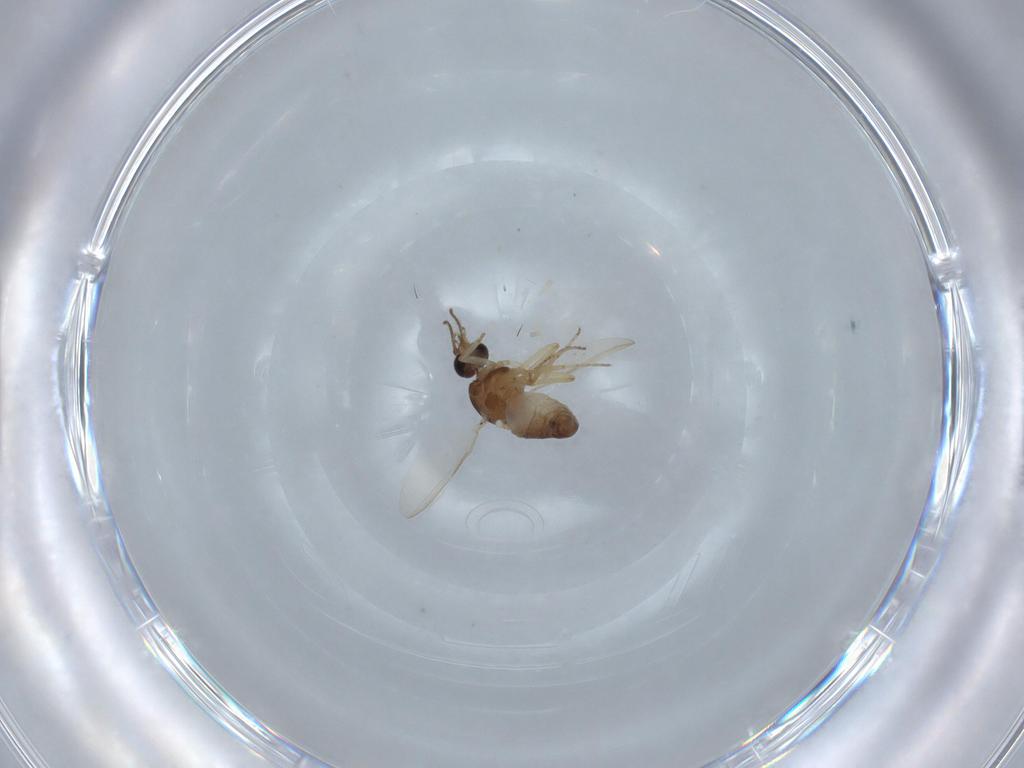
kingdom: Animalia
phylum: Arthropoda
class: Insecta
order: Diptera
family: Ceratopogonidae
